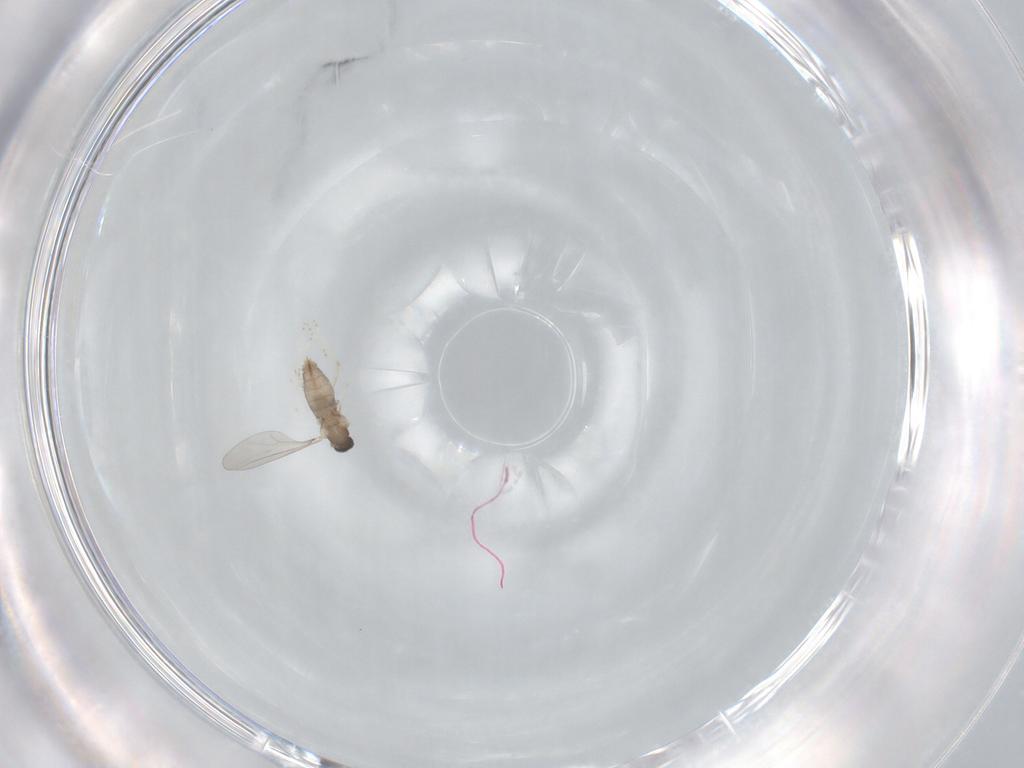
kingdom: Animalia
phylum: Arthropoda
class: Insecta
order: Diptera
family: Cecidomyiidae
